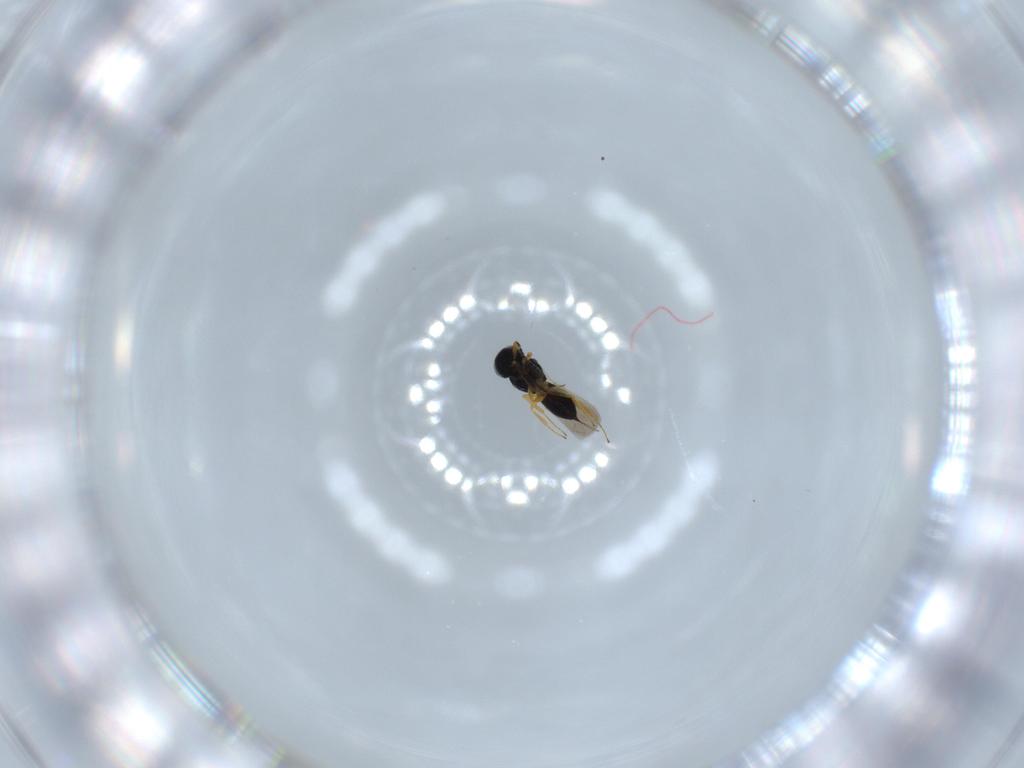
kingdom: Animalia
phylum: Arthropoda
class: Insecta
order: Hymenoptera
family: Scelionidae
